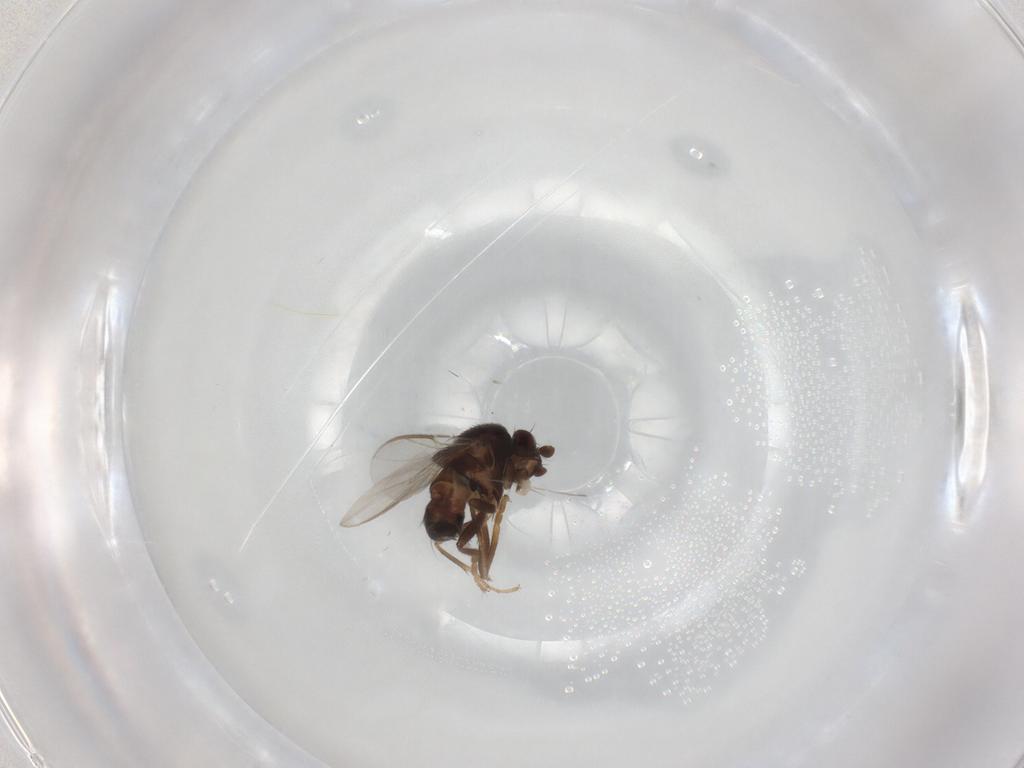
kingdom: Animalia
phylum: Arthropoda
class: Insecta
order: Diptera
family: Sphaeroceridae
